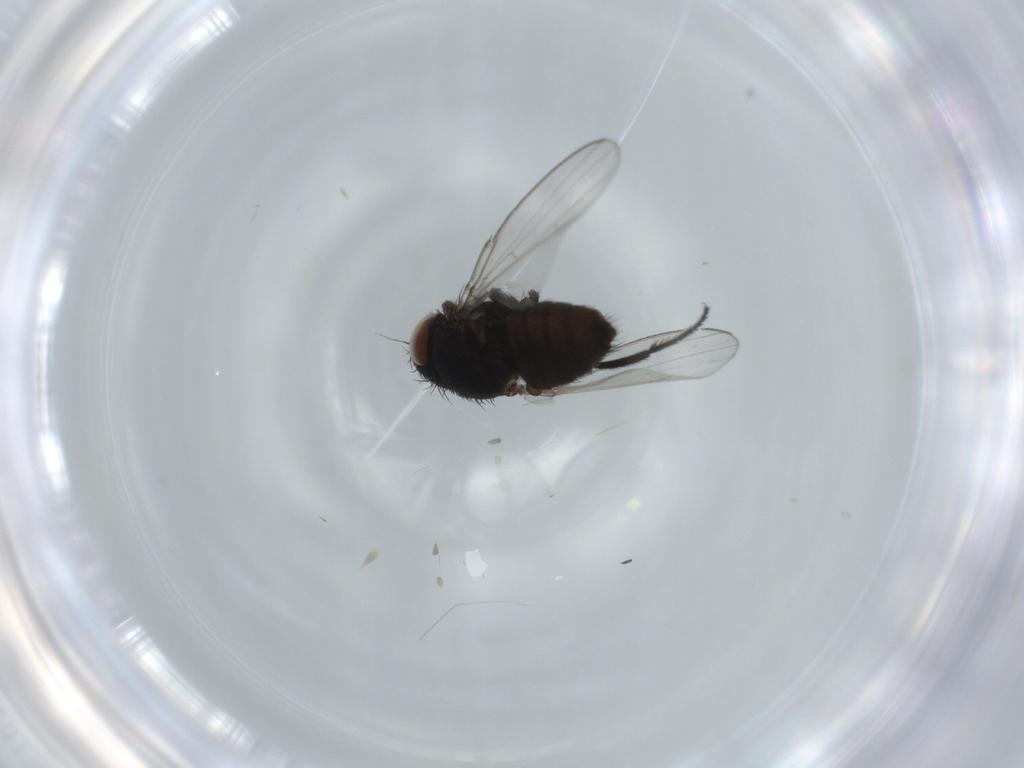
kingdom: Animalia
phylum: Arthropoda
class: Insecta
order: Diptera
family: Milichiidae
